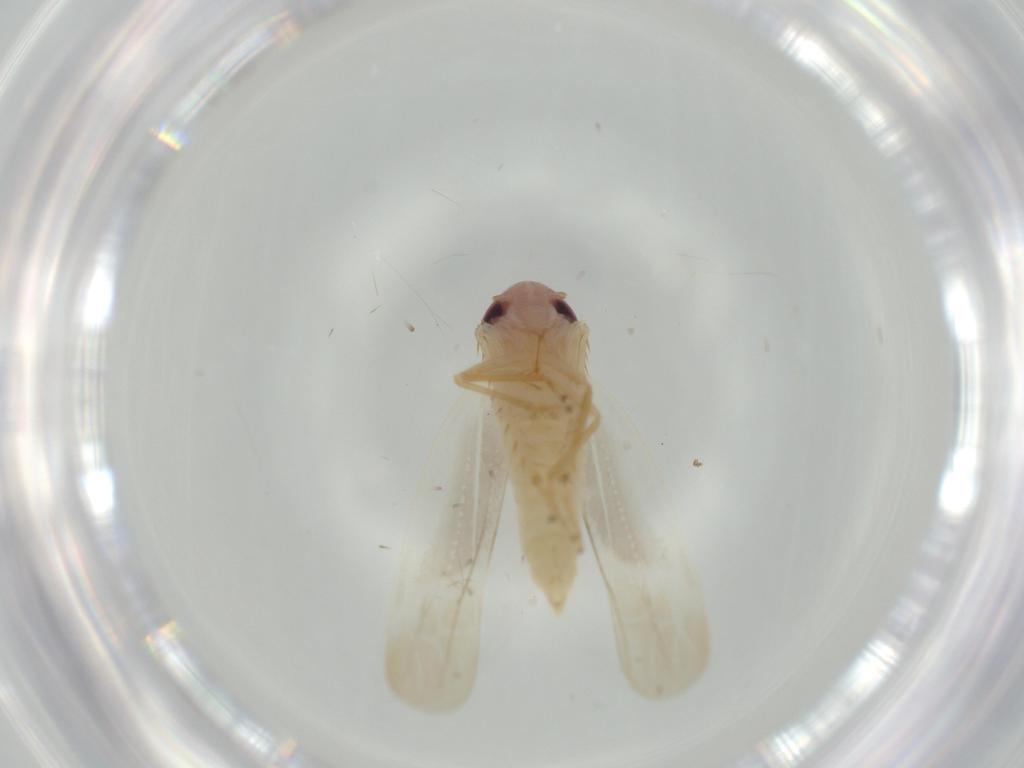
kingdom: Animalia
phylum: Arthropoda
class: Insecta
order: Hemiptera
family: Cicadellidae
